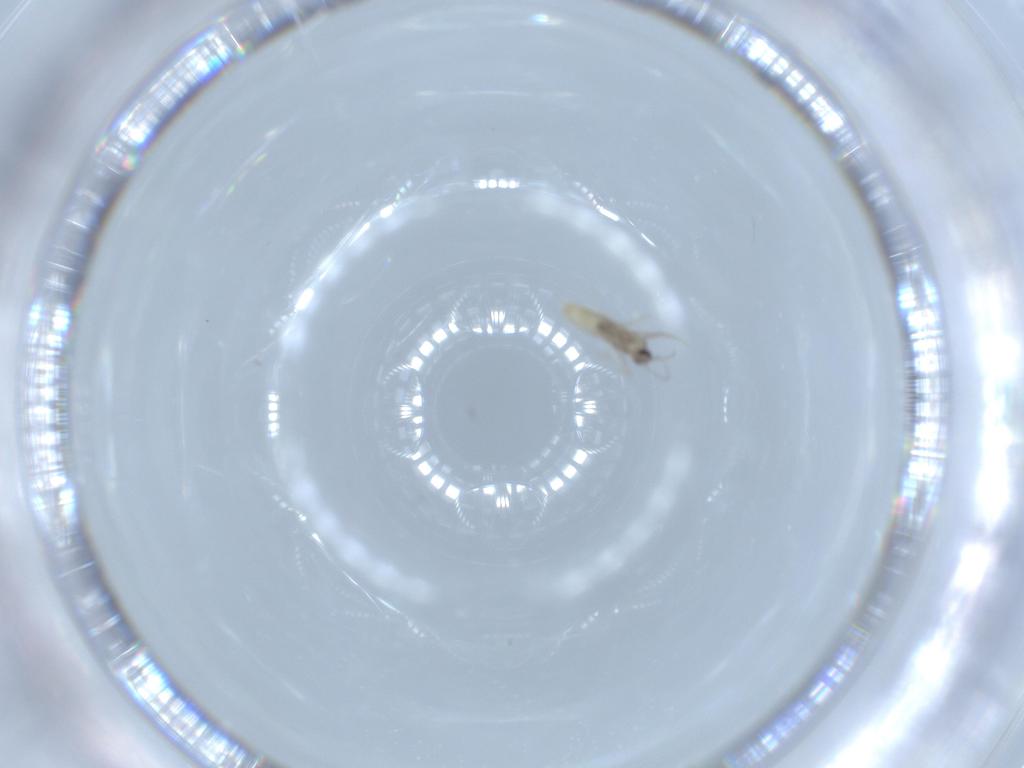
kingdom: Animalia
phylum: Arthropoda
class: Insecta
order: Diptera
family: Cecidomyiidae
